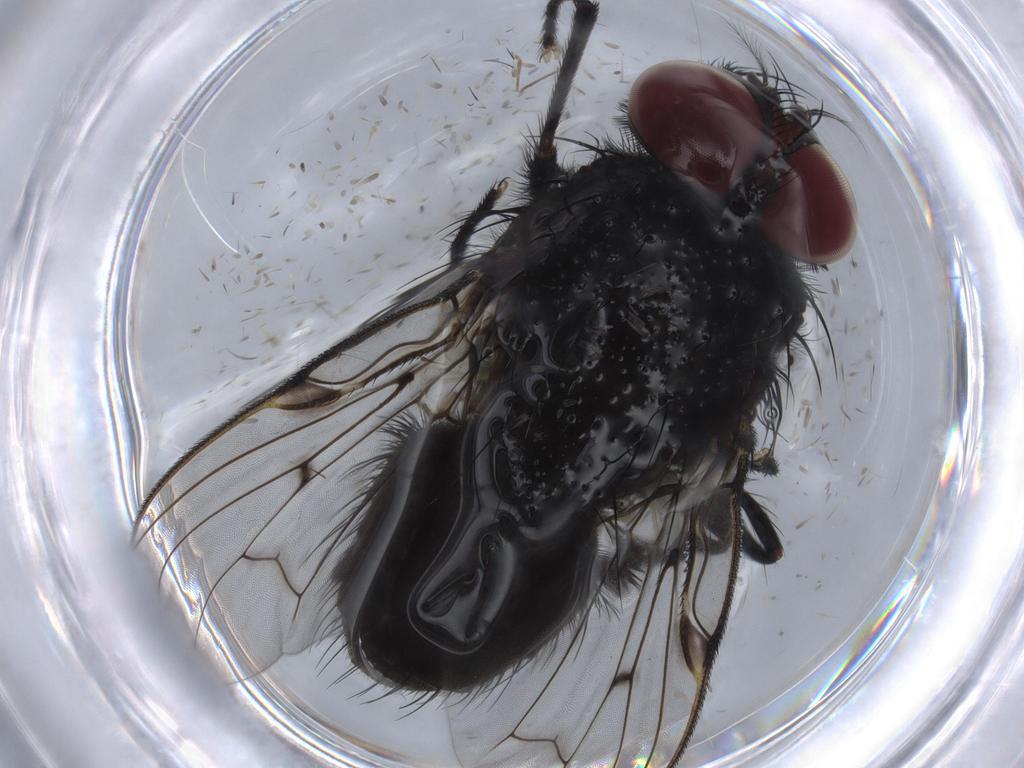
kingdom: Animalia
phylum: Arthropoda
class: Insecta
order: Diptera
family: Muscidae
